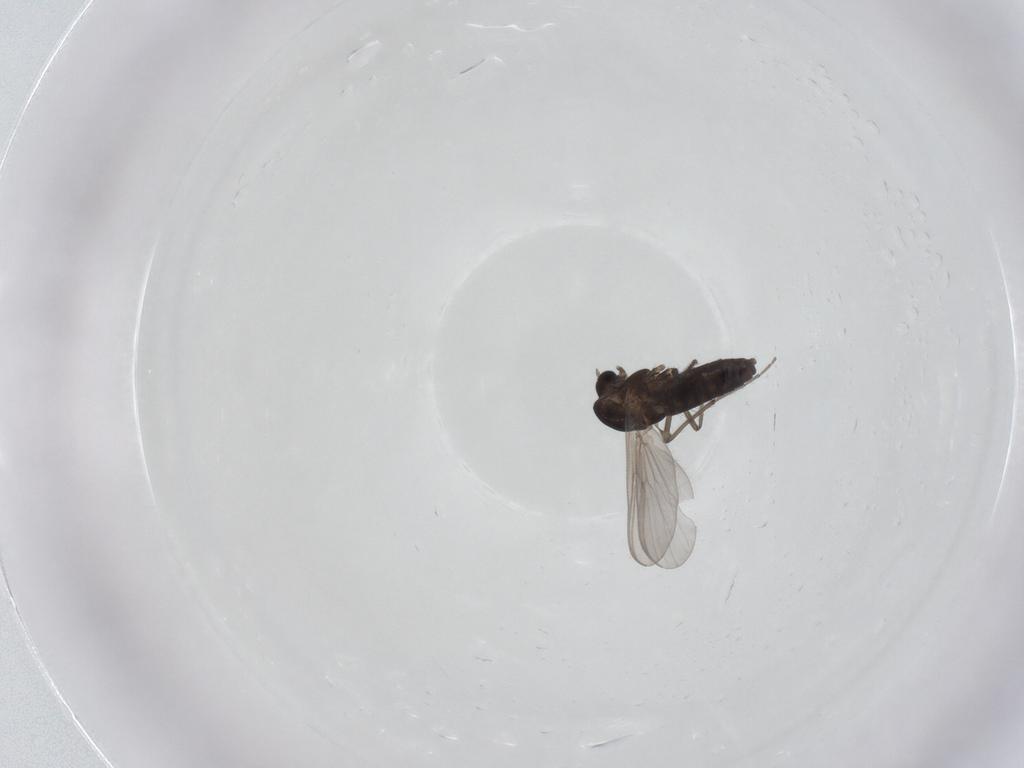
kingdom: Animalia
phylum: Arthropoda
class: Insecta
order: Diptera
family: Chironomidae
